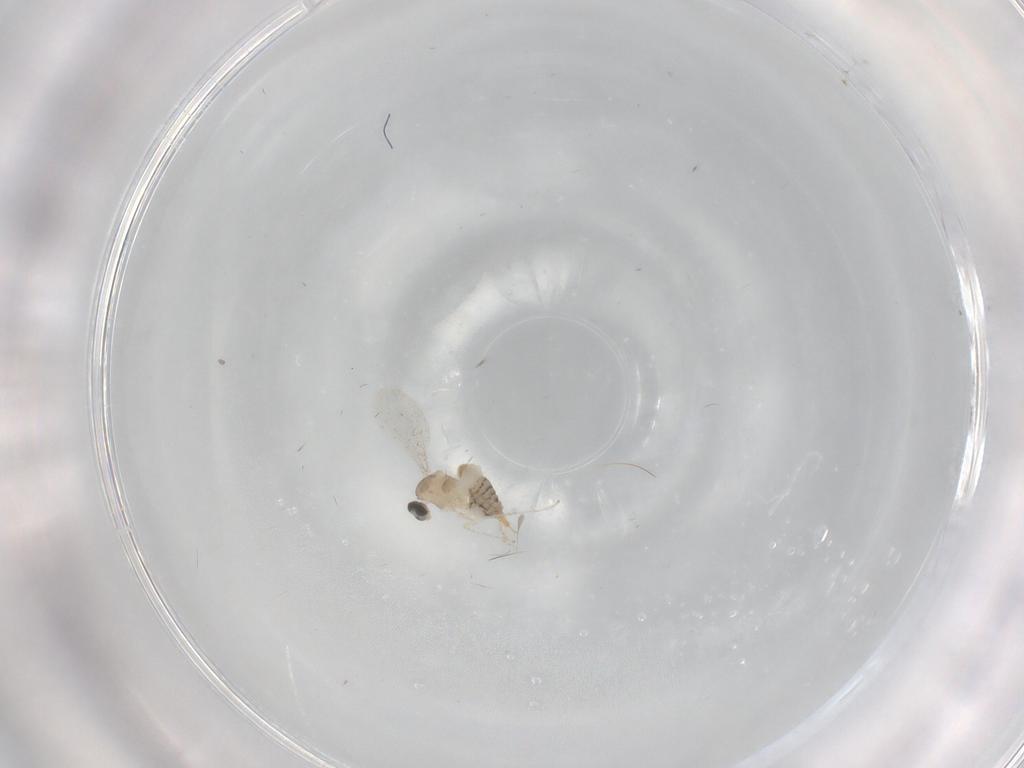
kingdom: Animalia
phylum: Arthropoda
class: Insecta
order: Diptera
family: Cecidomyiidae
